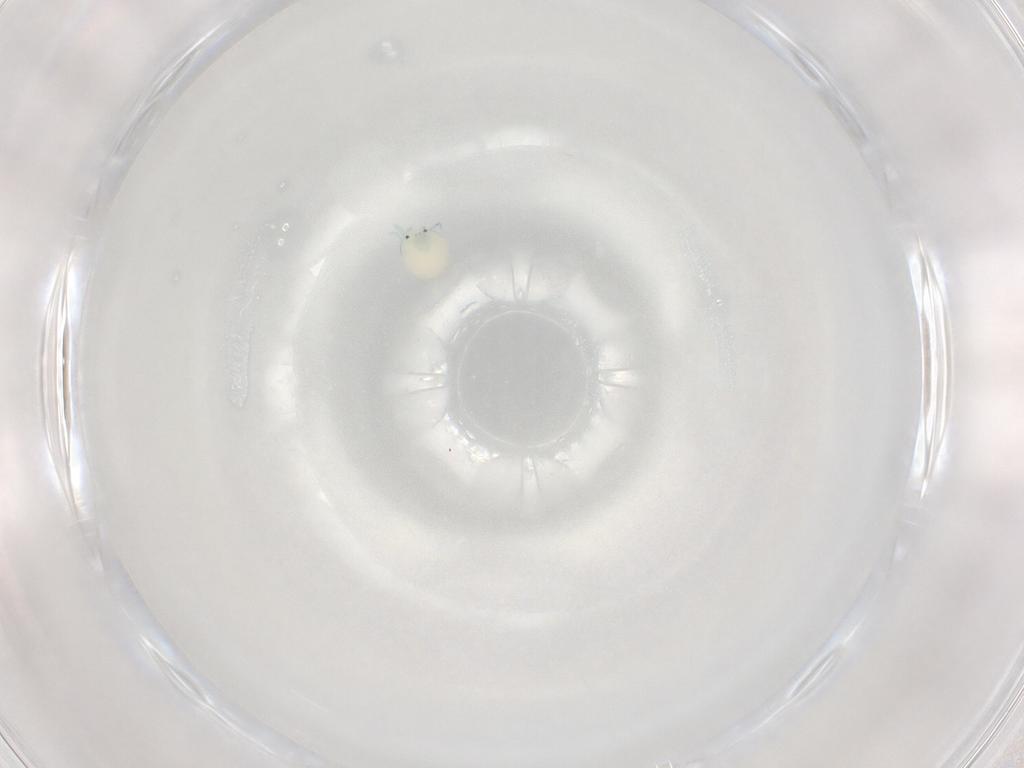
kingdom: Animalia
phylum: Arthropoda
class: Arachnida
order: Trombidiformes
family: Arrenuridae
